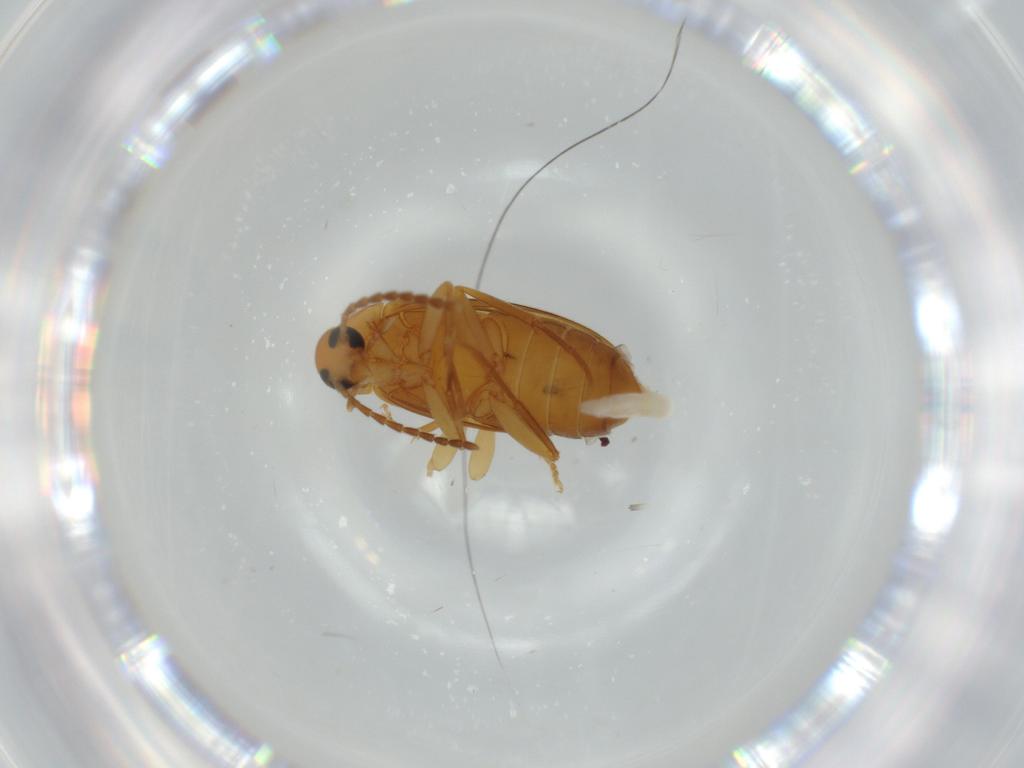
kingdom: Animalia
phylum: Arthropoda
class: Insecta
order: Coleoptera
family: Scraptiidae
